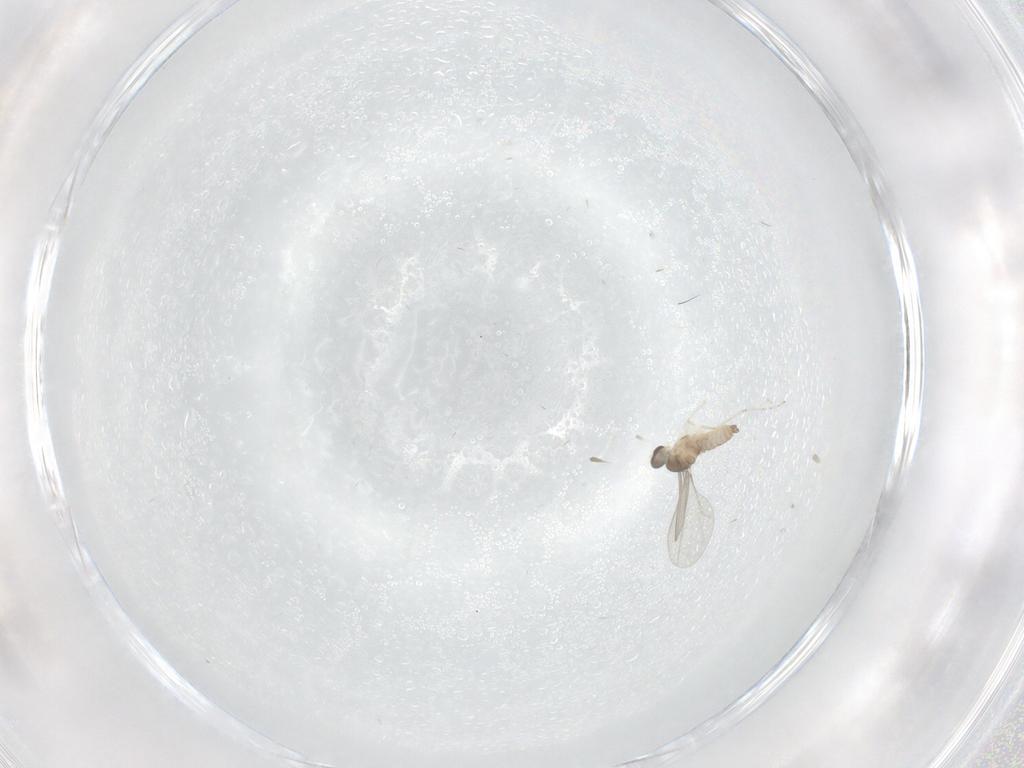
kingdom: Animalia
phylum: Arthropoda
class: Insecta
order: Diptera
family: Cecidomyiidae
